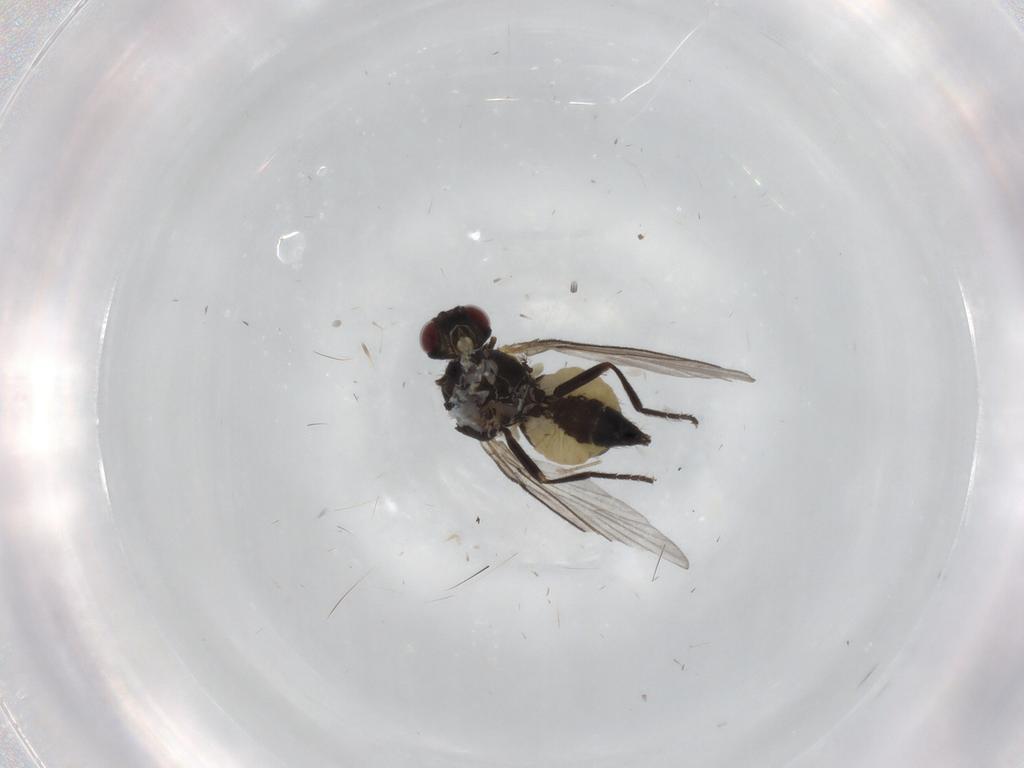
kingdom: Animalia
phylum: Arthropoda
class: Insecta
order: Diptera
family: Agromyzidae
